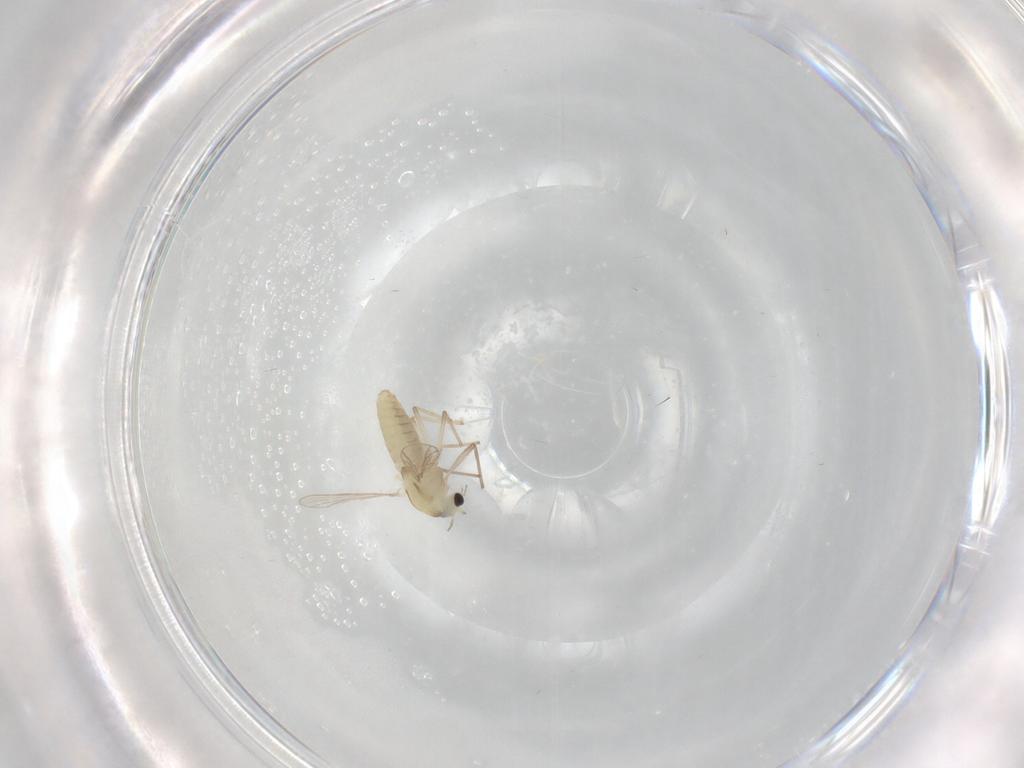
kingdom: Animalia
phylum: Arthropoda
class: Insecta
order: Diptera
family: Chironomidae
